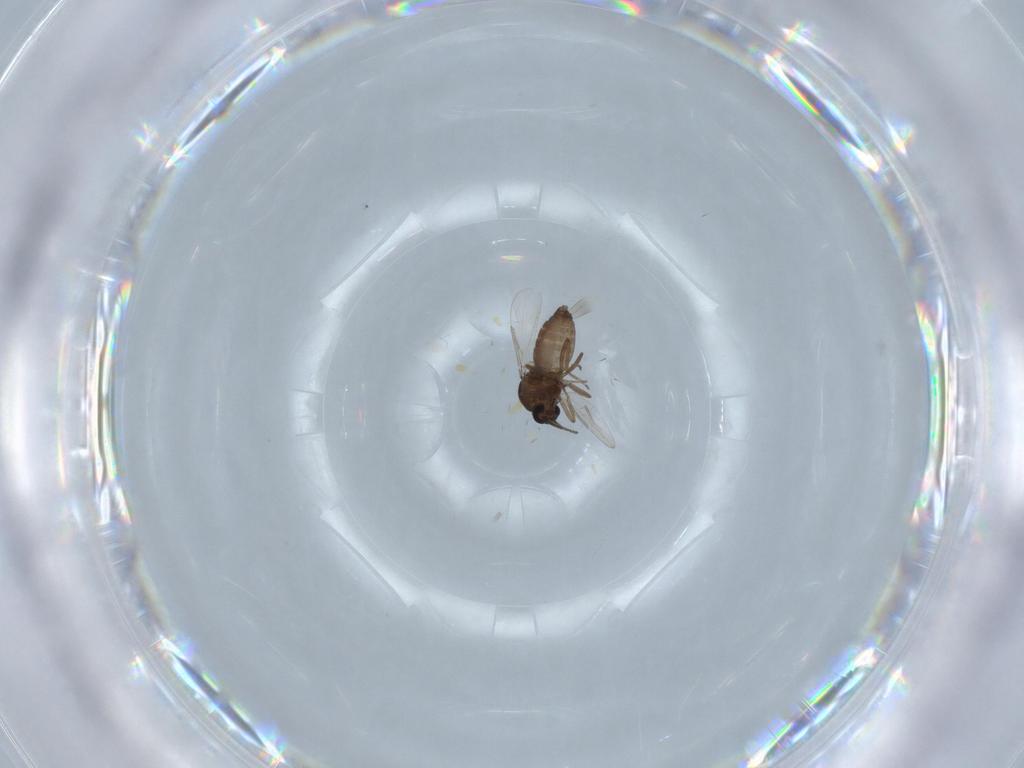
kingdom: Animalia
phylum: Arthropoda
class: Insecta
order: Diptera
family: Ceratopogonidae
